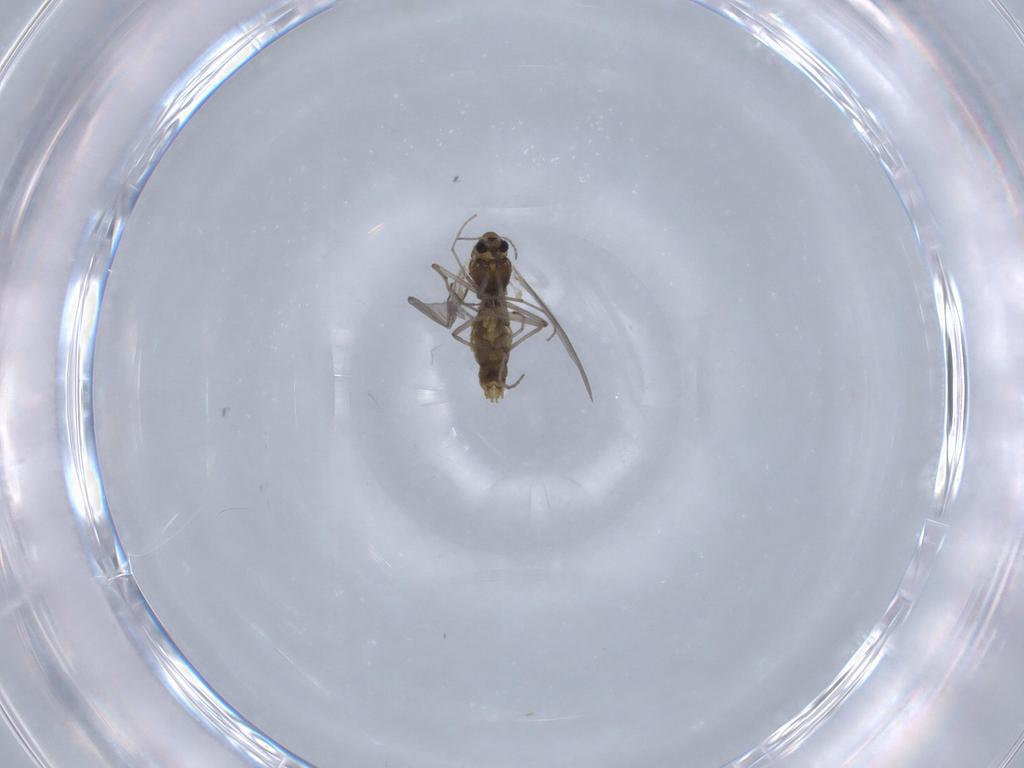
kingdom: Animalia
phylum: Arthropoda
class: Insecta
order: Diptera
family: Chironomidae
